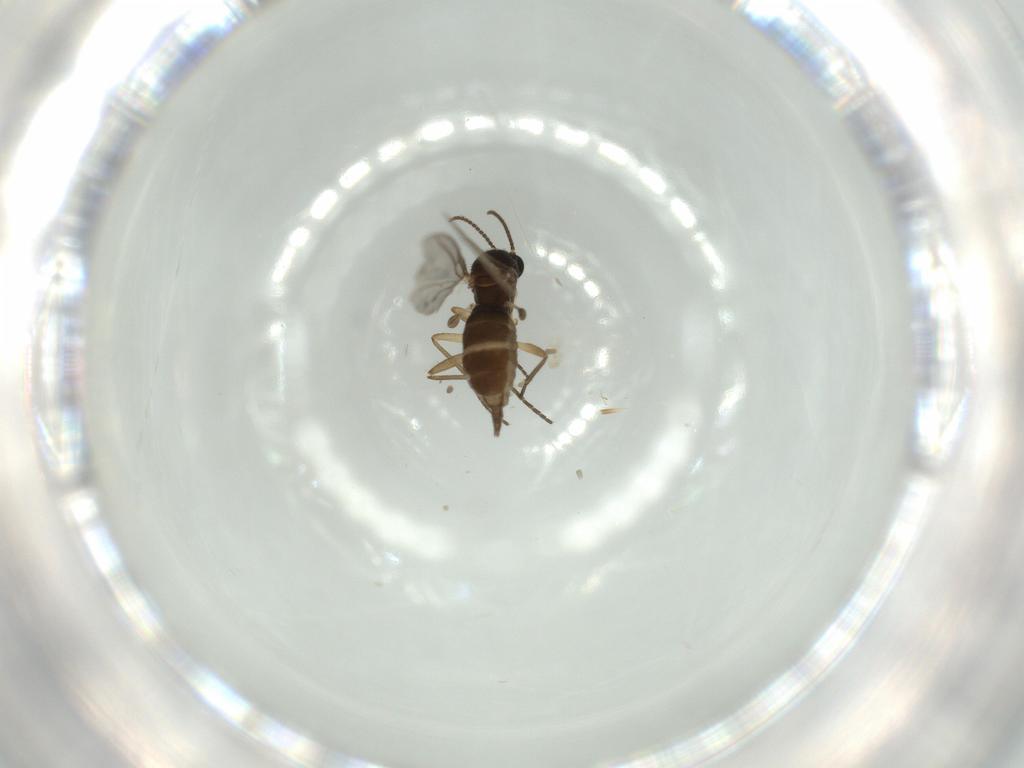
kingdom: Animalia
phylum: Arthropoda
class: Insecta
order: Diptera
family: Sciaridae
